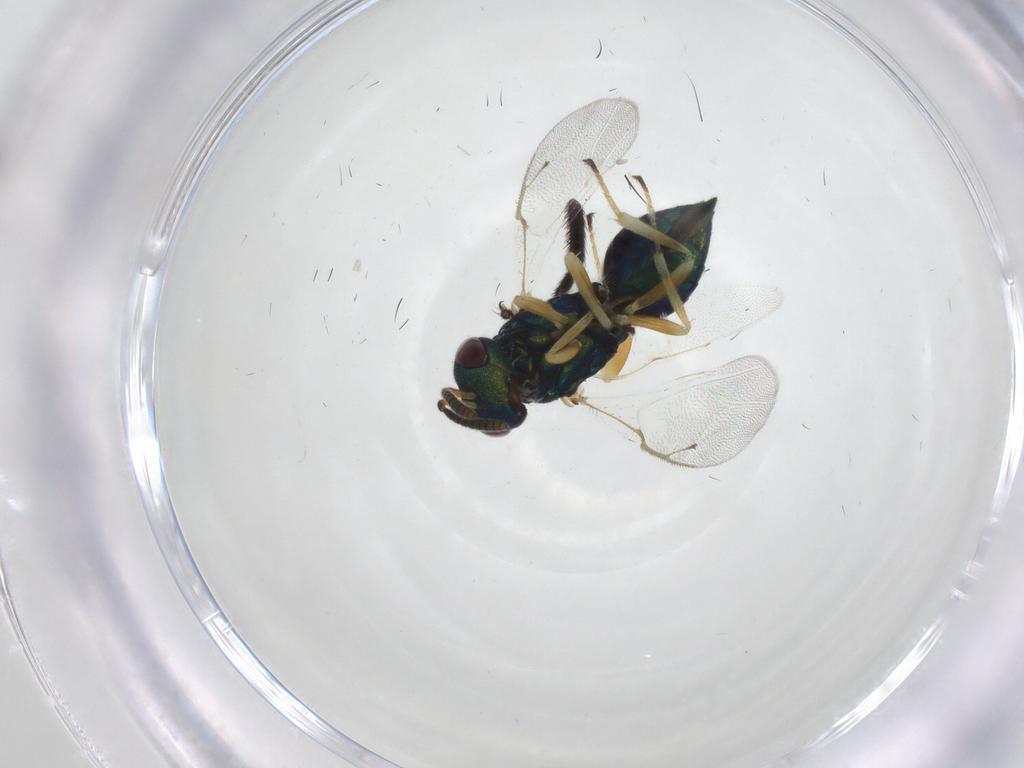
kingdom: Animalia
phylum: Arthropoda
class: Insecta
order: Hymenoptera
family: Pteromalidae
